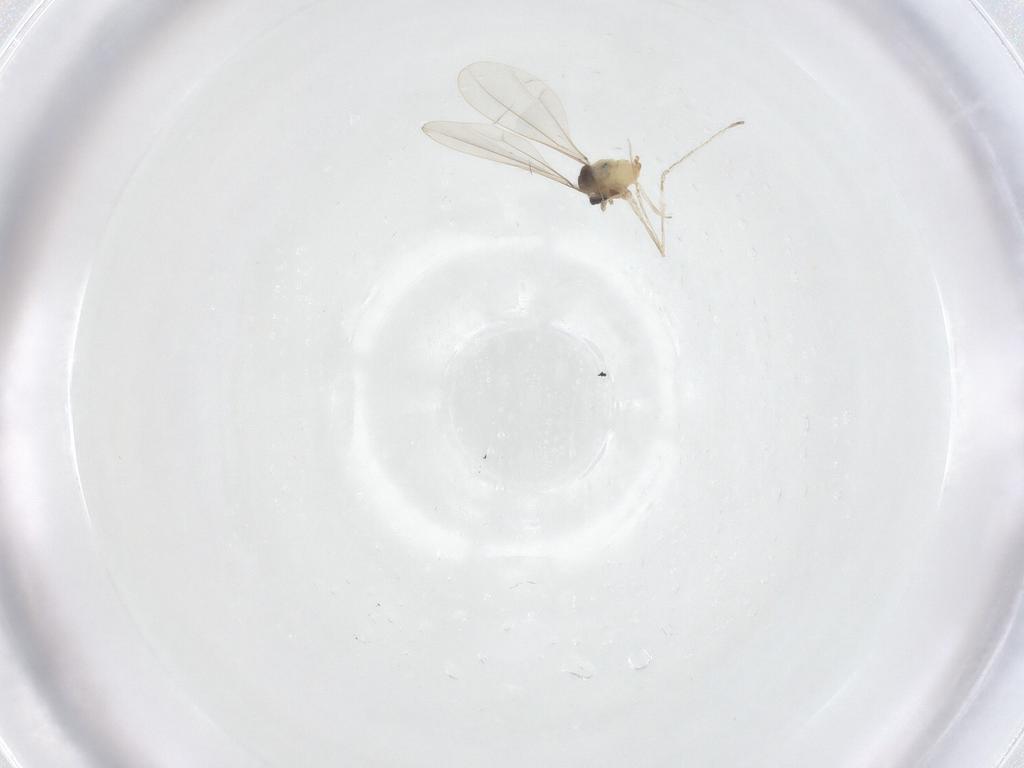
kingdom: Animalia
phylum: Arthropoda
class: Insecta
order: Diptera
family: Cecidomyiidae
